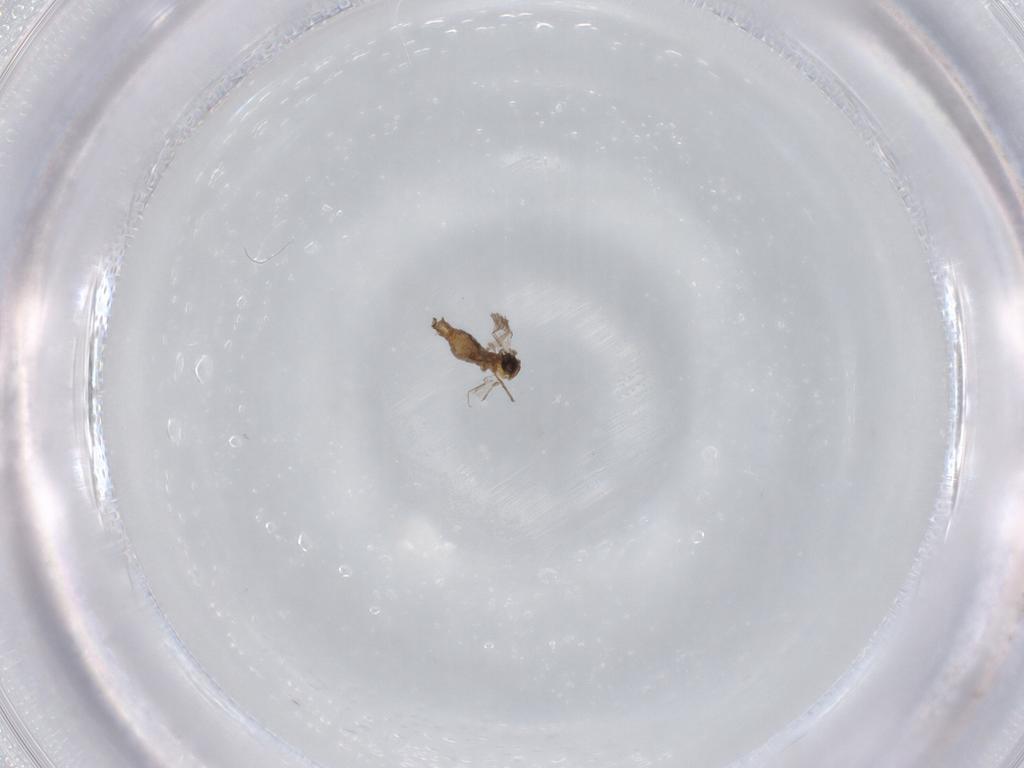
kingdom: Animalia
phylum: Arthropoda
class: Insecta
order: Diptera
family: Psychodidae
